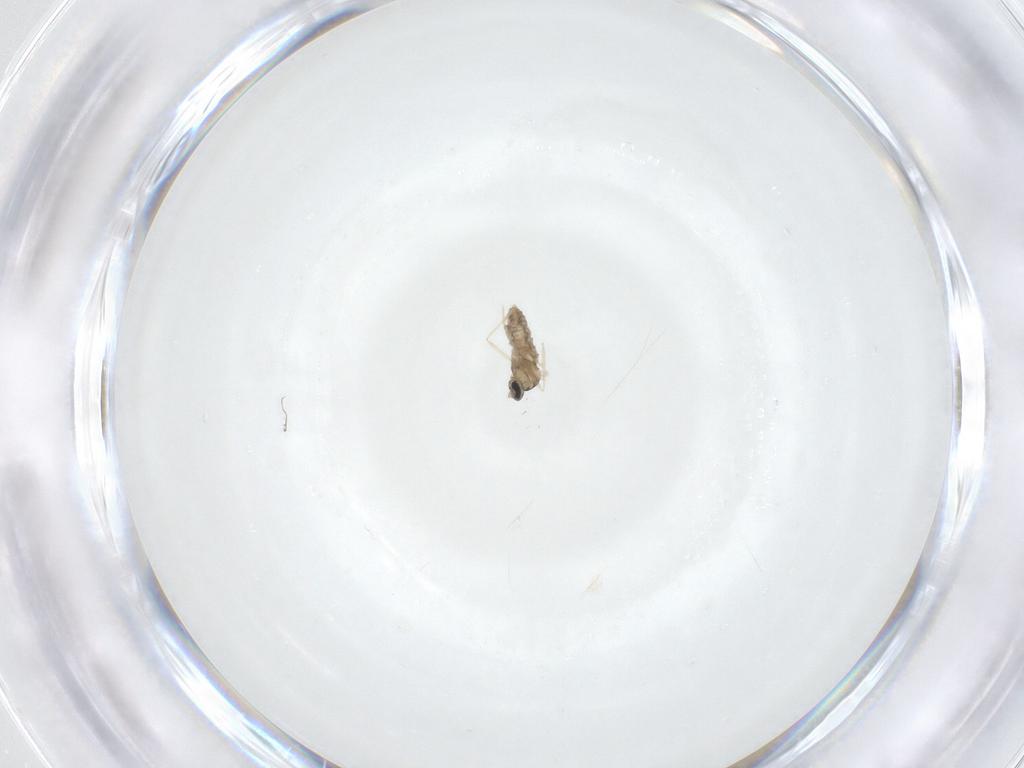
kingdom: Animalia
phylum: Arthropoda
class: Insecta
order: Diptera
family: Cecidomyiidae
